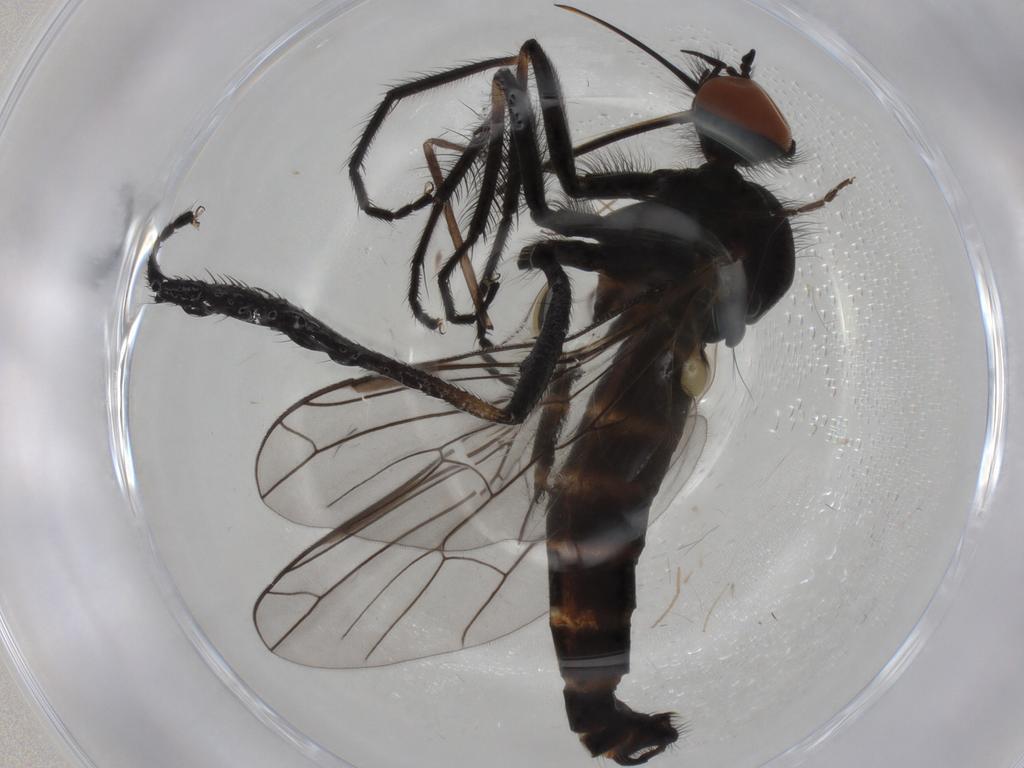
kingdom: Animalia
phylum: Arthropoda
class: Insecta
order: Diptera
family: Empididae
